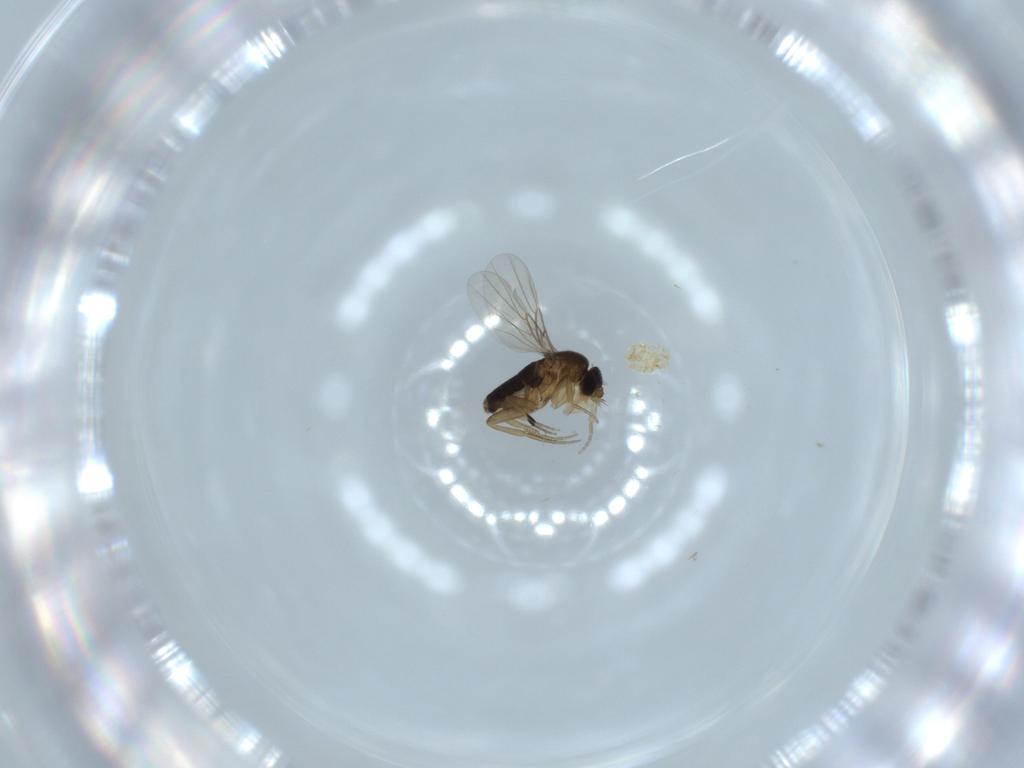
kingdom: Animalia
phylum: Arthropoda
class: Insecta
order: Diptera
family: Phoridae
